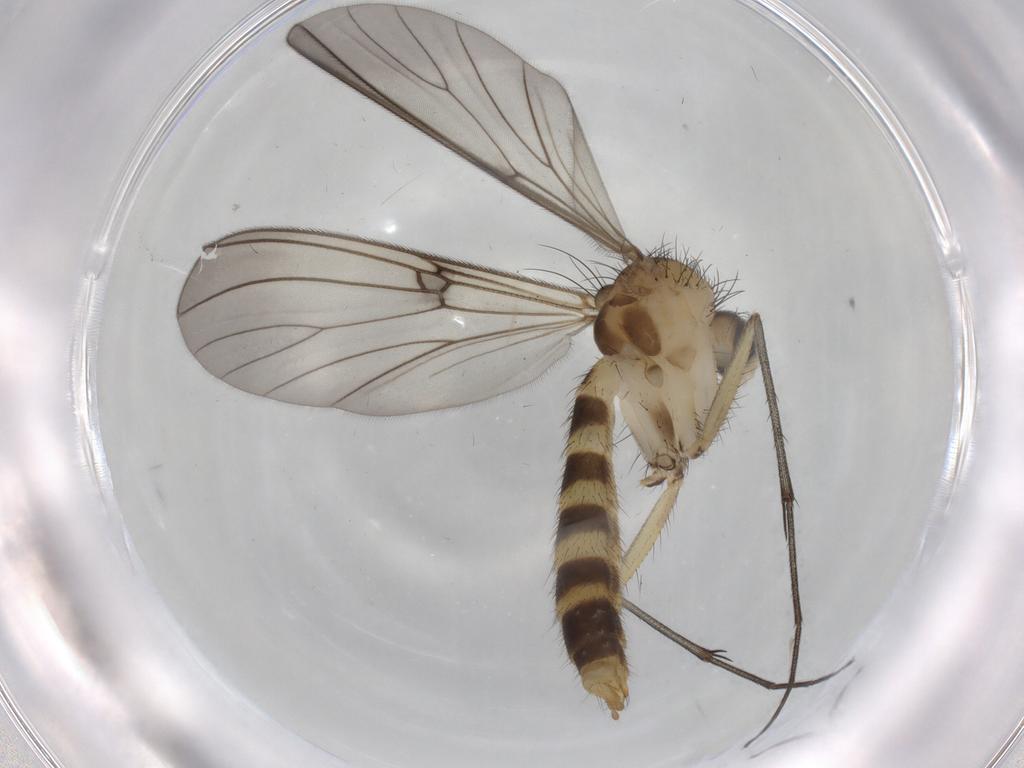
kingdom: Animalia
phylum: Arthropoda
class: Insecta
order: Diptera
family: Mycetophilidae
